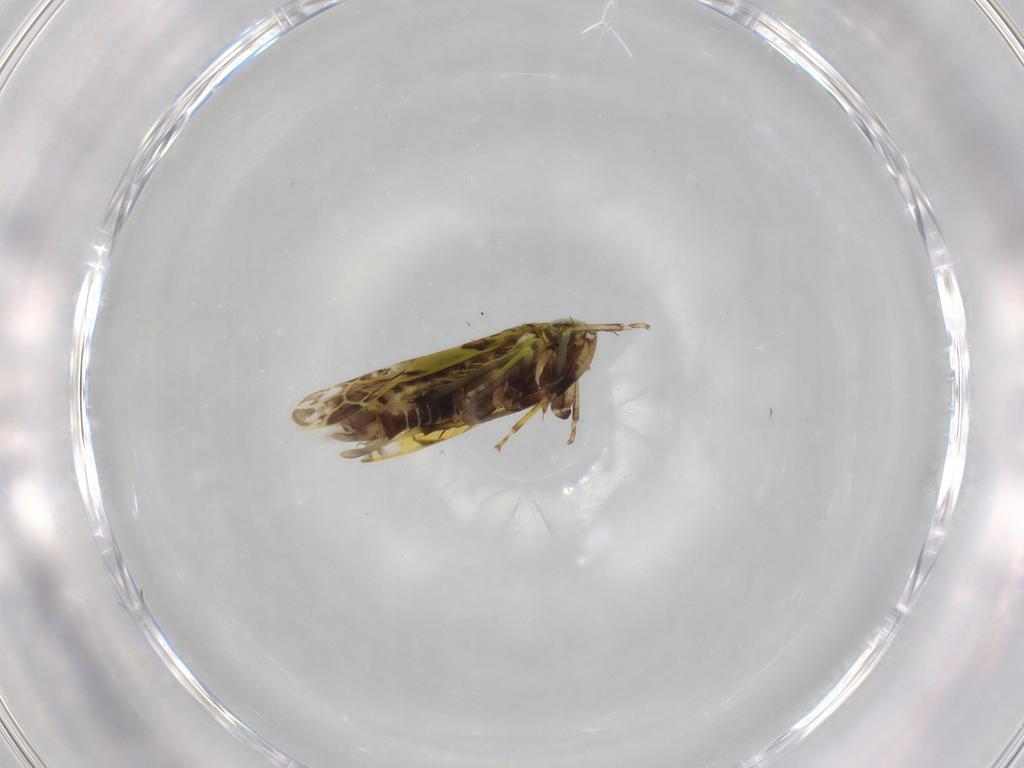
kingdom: Animalia
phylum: Arthropoda
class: Insecta
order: Hemiptera
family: Cicadellidae
